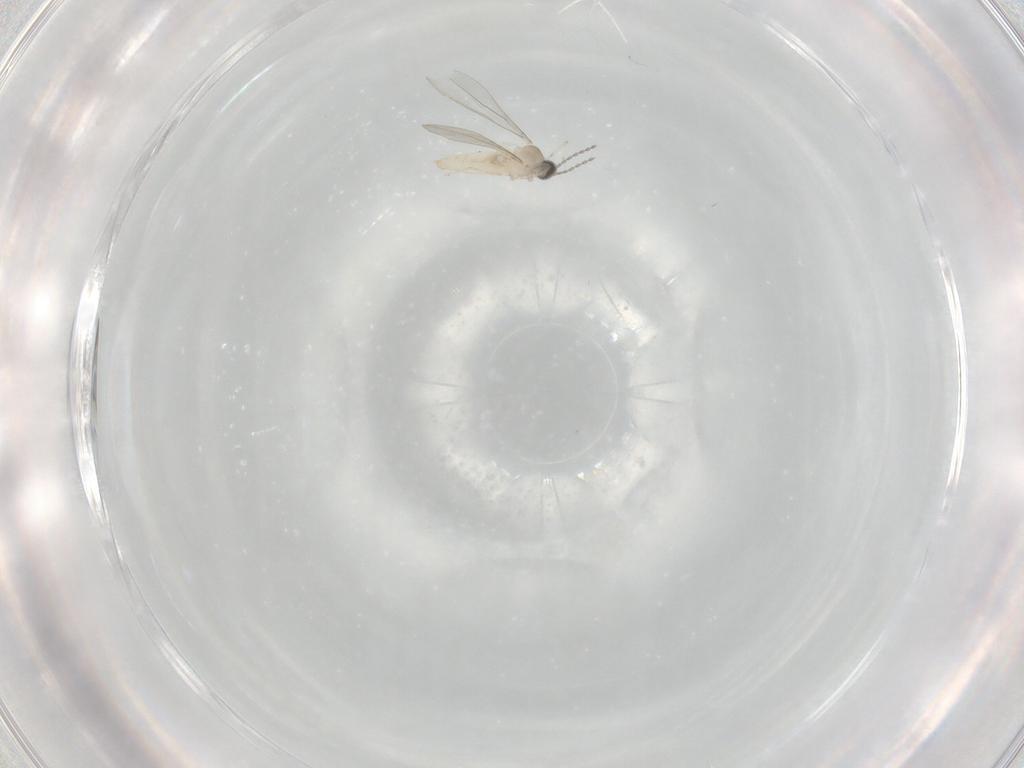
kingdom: Animalia
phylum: Arthropoda
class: Insecta
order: Diptera
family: Cecidomyiidae
